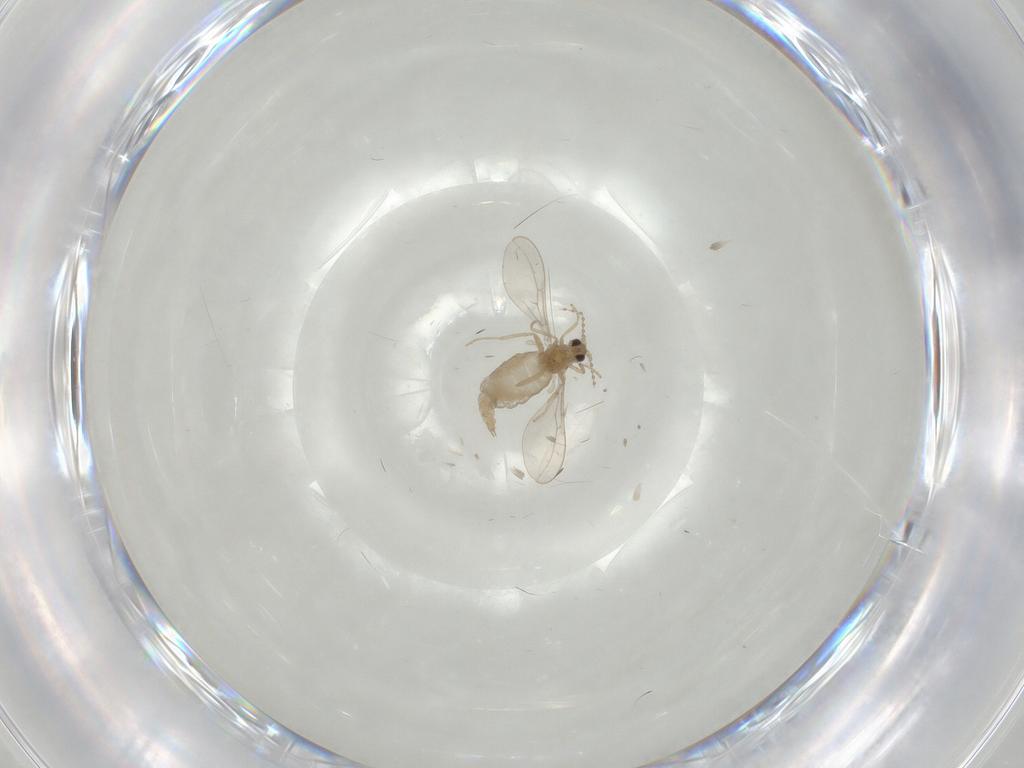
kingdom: Animalia
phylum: Arthropoda
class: Insecta
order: Diptera
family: Cecidomyiidae
